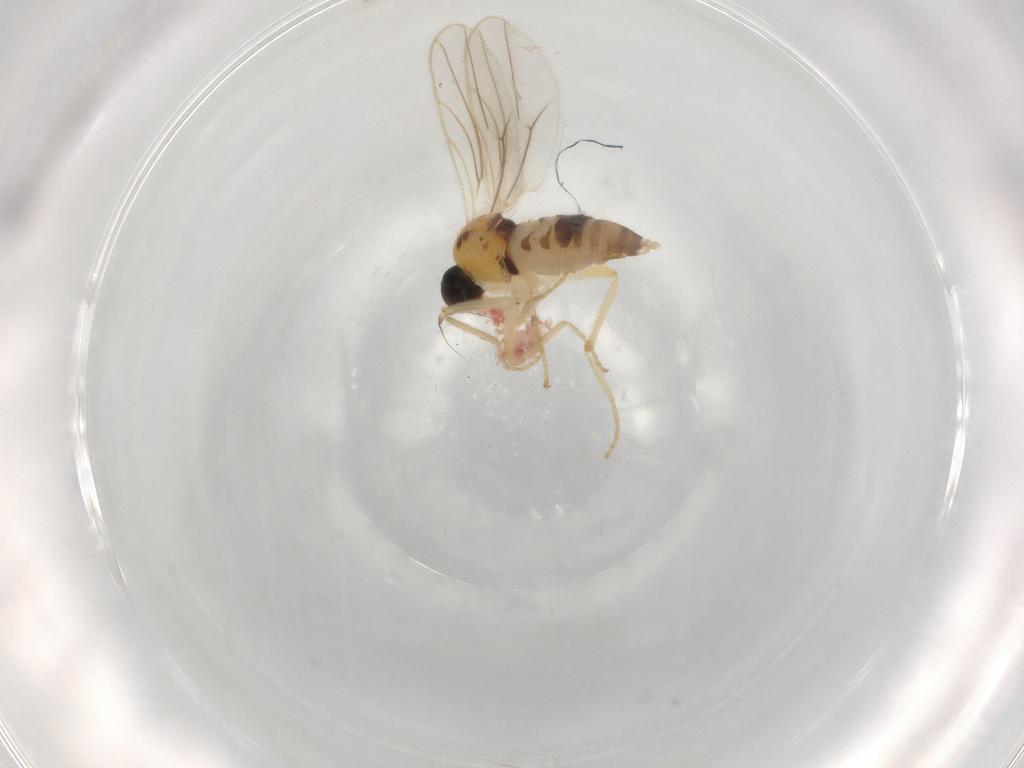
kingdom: Animalia
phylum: Arthropoda
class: Insecta
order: Diptera
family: Hybotidae
